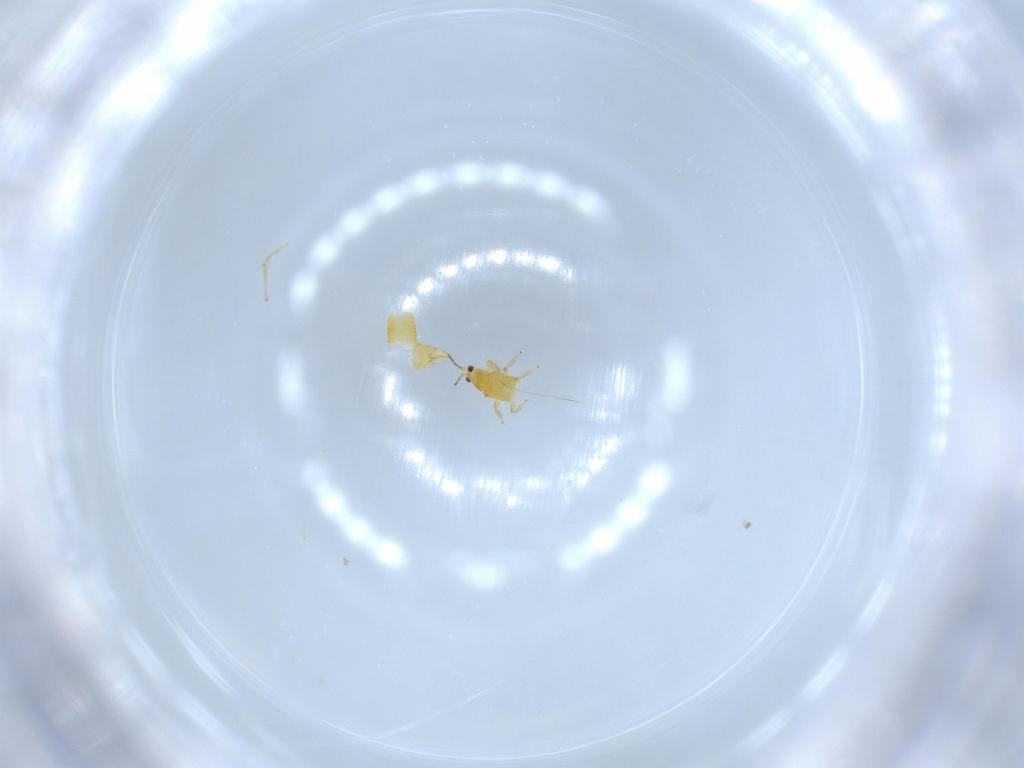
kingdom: Animalia
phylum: Arthropoda
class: Insecta
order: Thysanoptera
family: Thripidae
